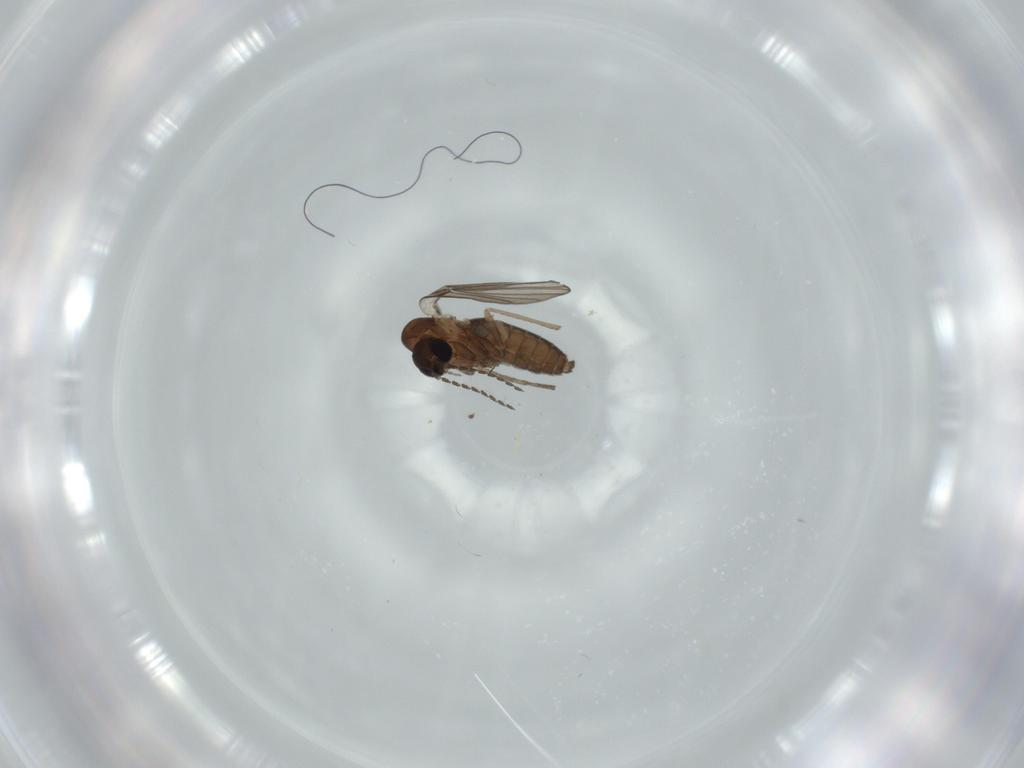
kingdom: Animalia
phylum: Arthropoda
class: Insecta
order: Diptera
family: Psychodidae
